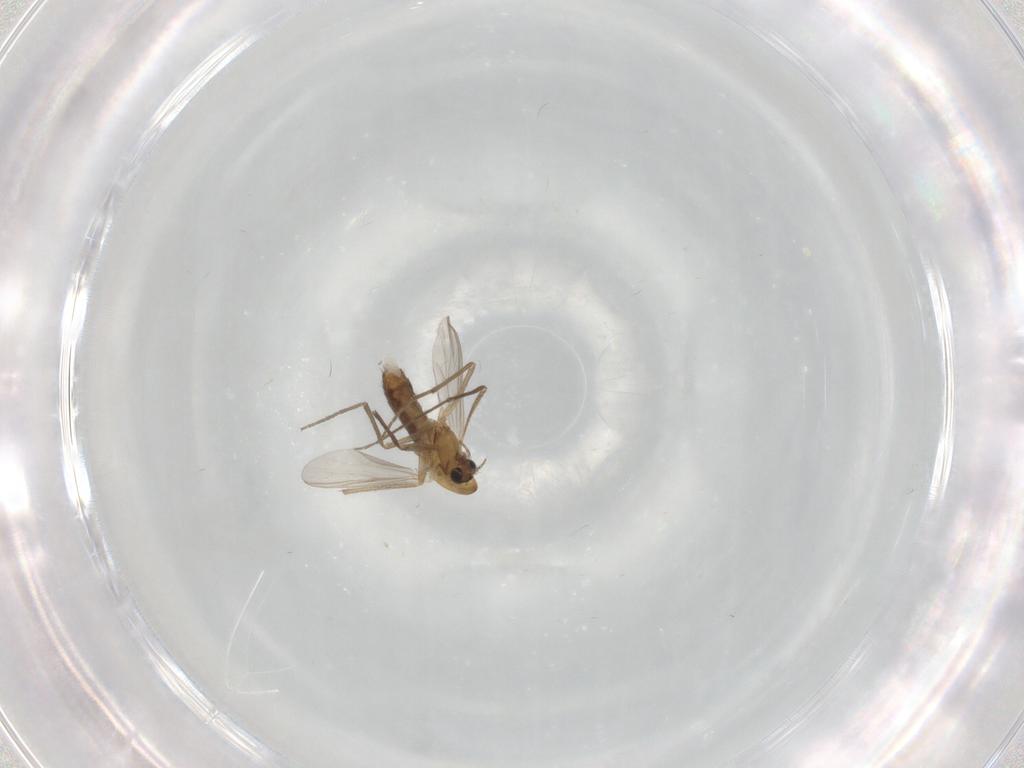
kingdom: Animalia
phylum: Arthropoda
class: Insecta
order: Diptera
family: Chironomidae
